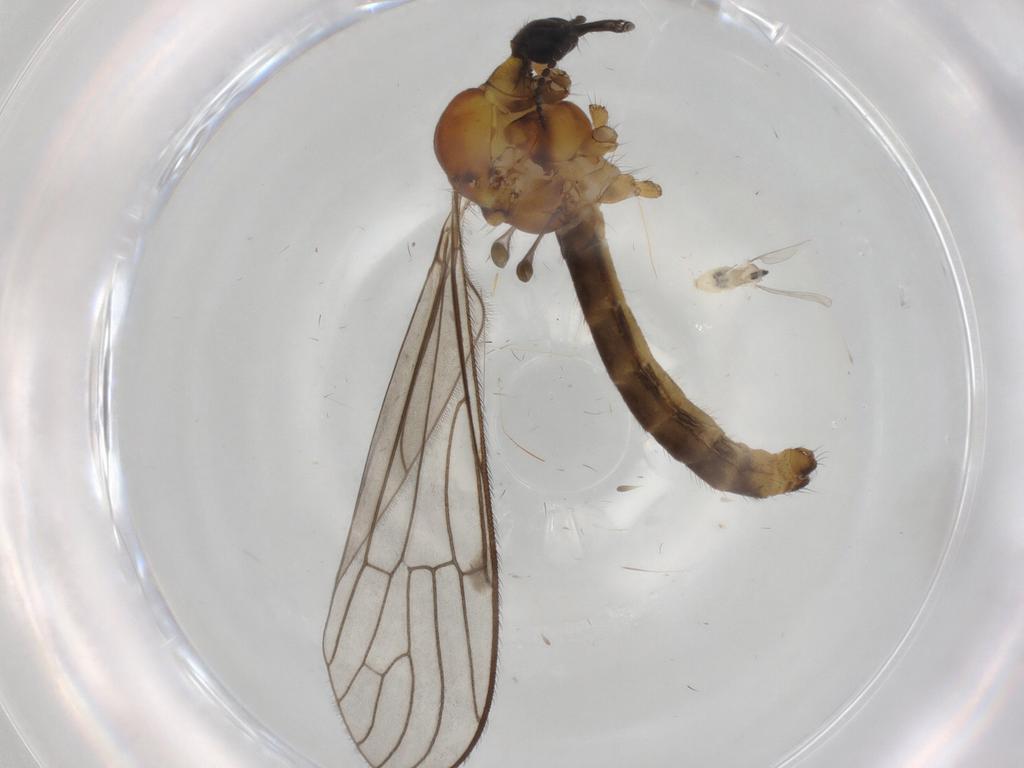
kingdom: Animalia
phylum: Arthropoda
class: Insecta
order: Diptera
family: Limoniidae
